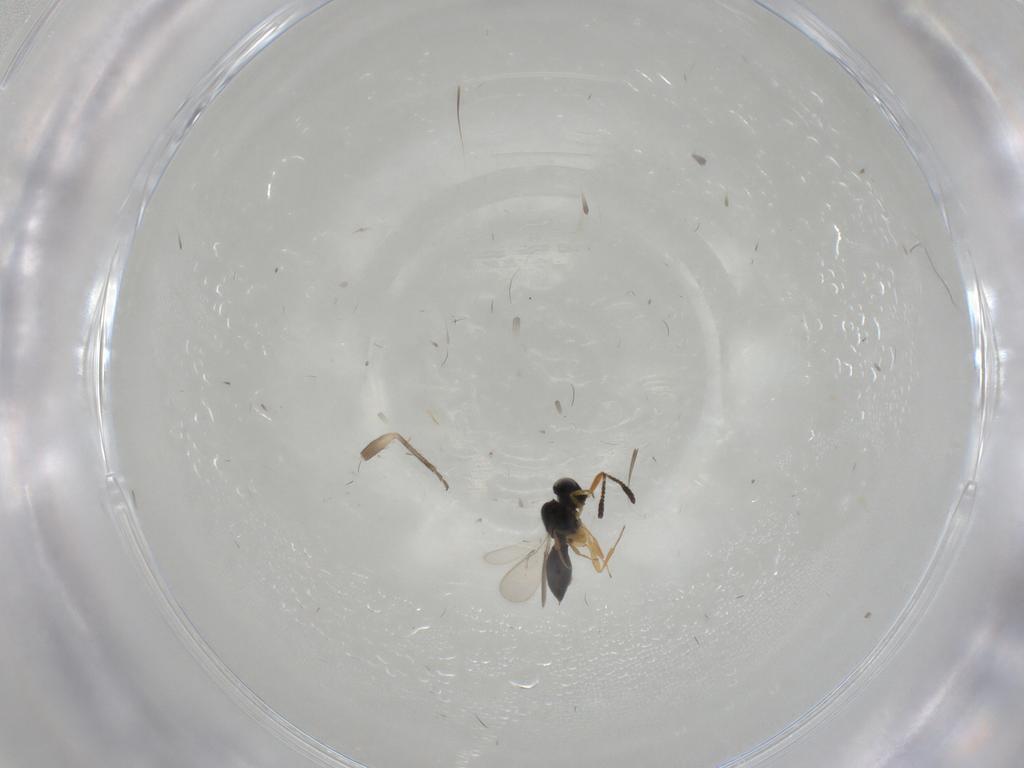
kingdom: Animalia
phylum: Arthropoda
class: Insecta
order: Hymenoptera
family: Scelionidae
